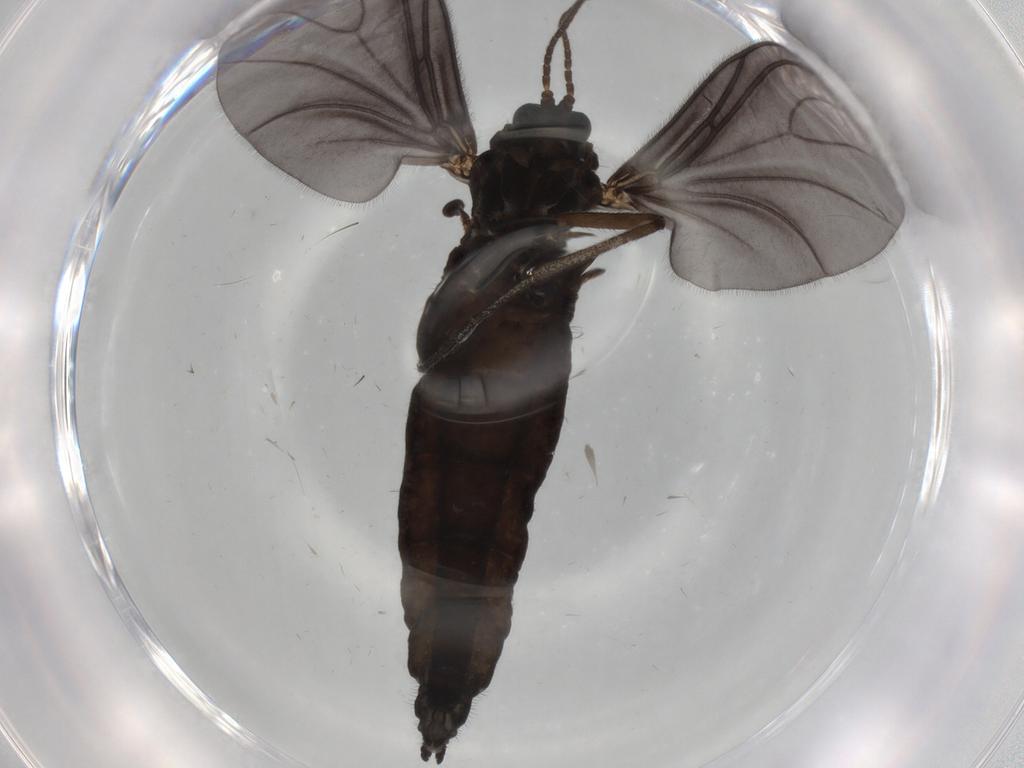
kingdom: Animalia
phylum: Arthropoda
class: Insecta
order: Diptera
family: Sciaridae
